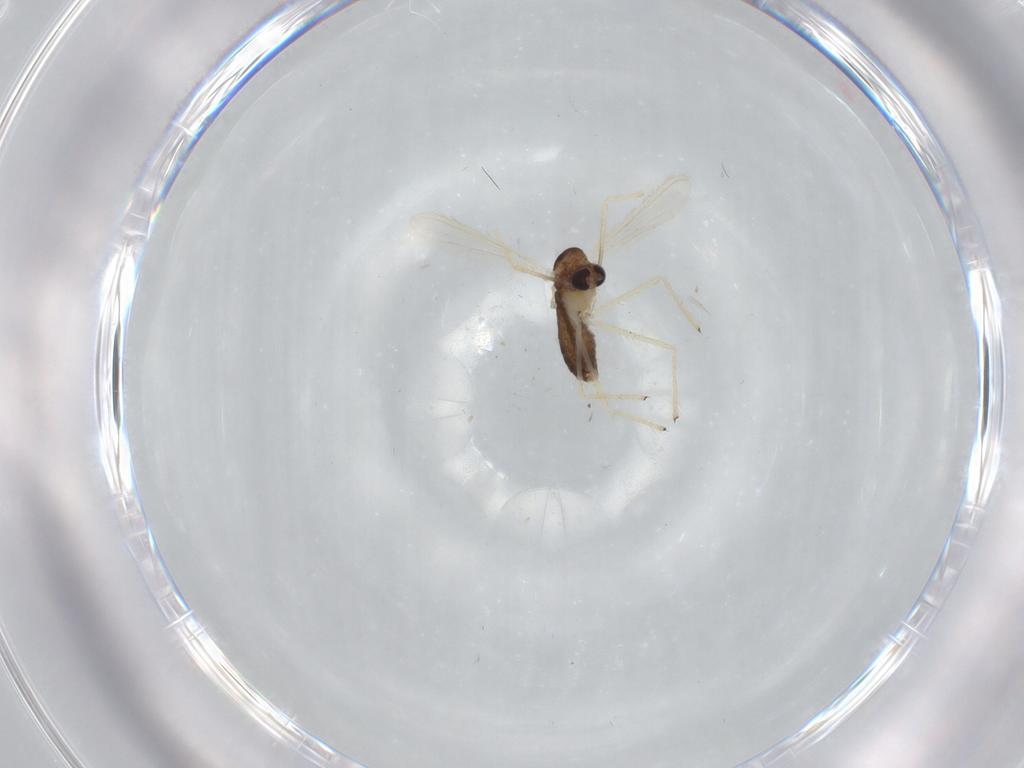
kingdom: Animalia
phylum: Arthropoda
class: Insecta
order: Diptera
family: Chironomidae
